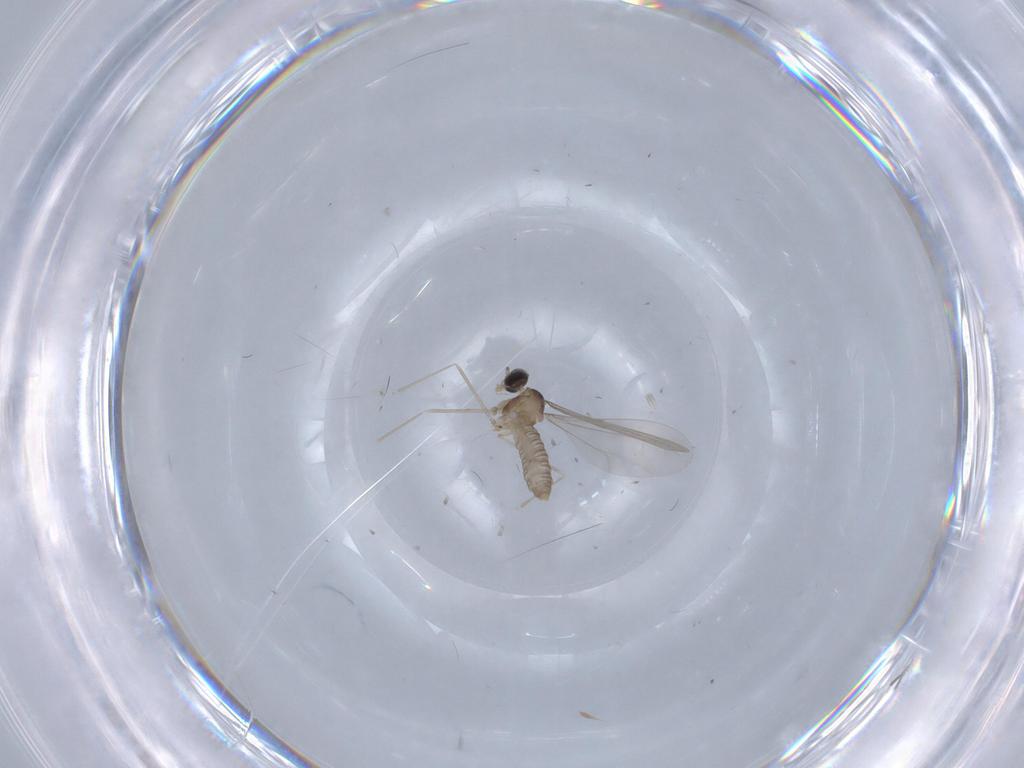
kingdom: Animalia
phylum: Arthropoda
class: Insecta
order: Diptera
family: Cecidomyiidae
